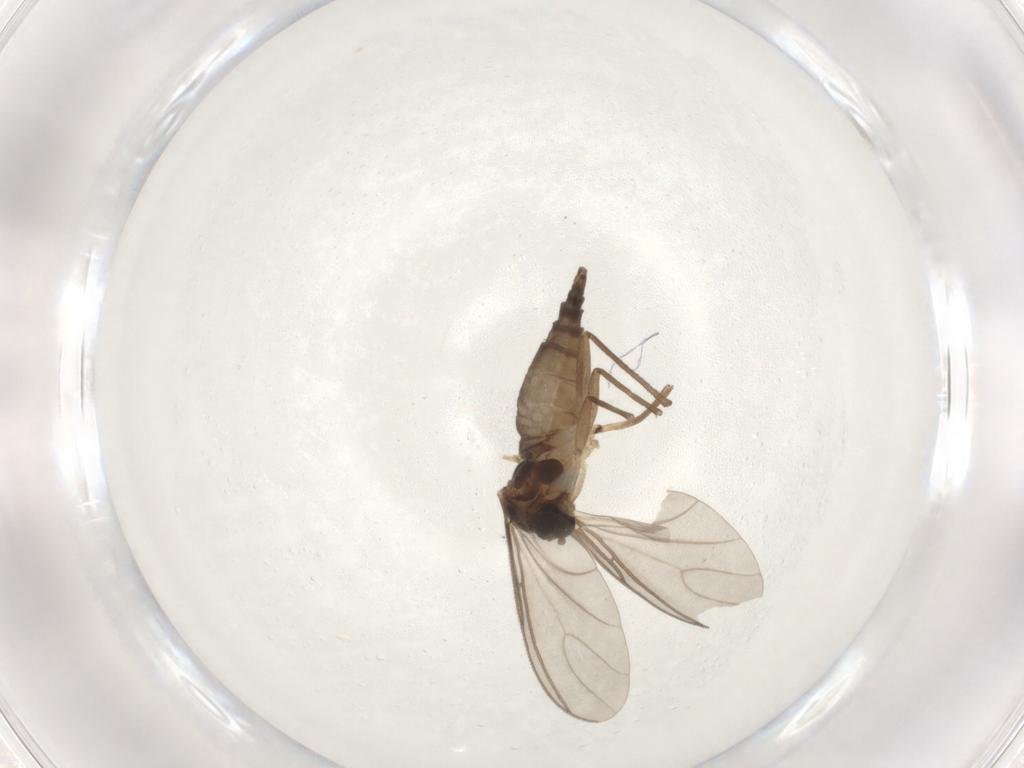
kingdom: Animalia
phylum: Arthropoda
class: Insecta
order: Diptera
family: Sciaridae
